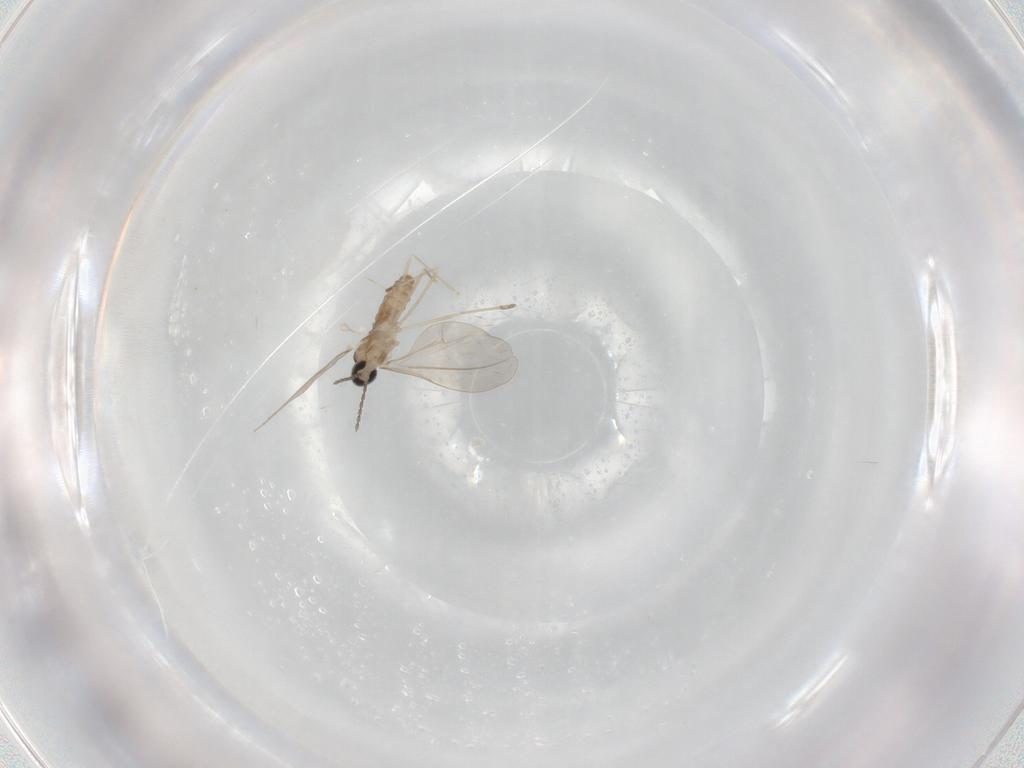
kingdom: Animalia
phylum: Arthropoda
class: Insecta
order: Diptera
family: Cecidomyiidae
